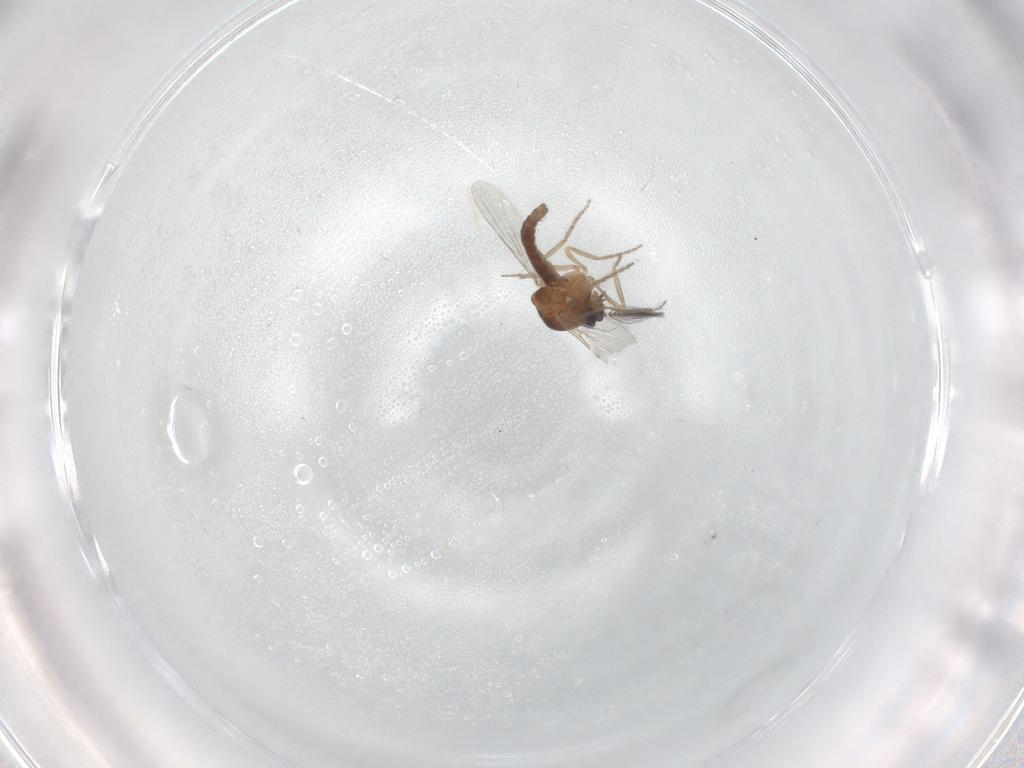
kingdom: Animalia
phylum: Arthropoda
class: Insecta
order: Diptera
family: Ceratopogonidae
